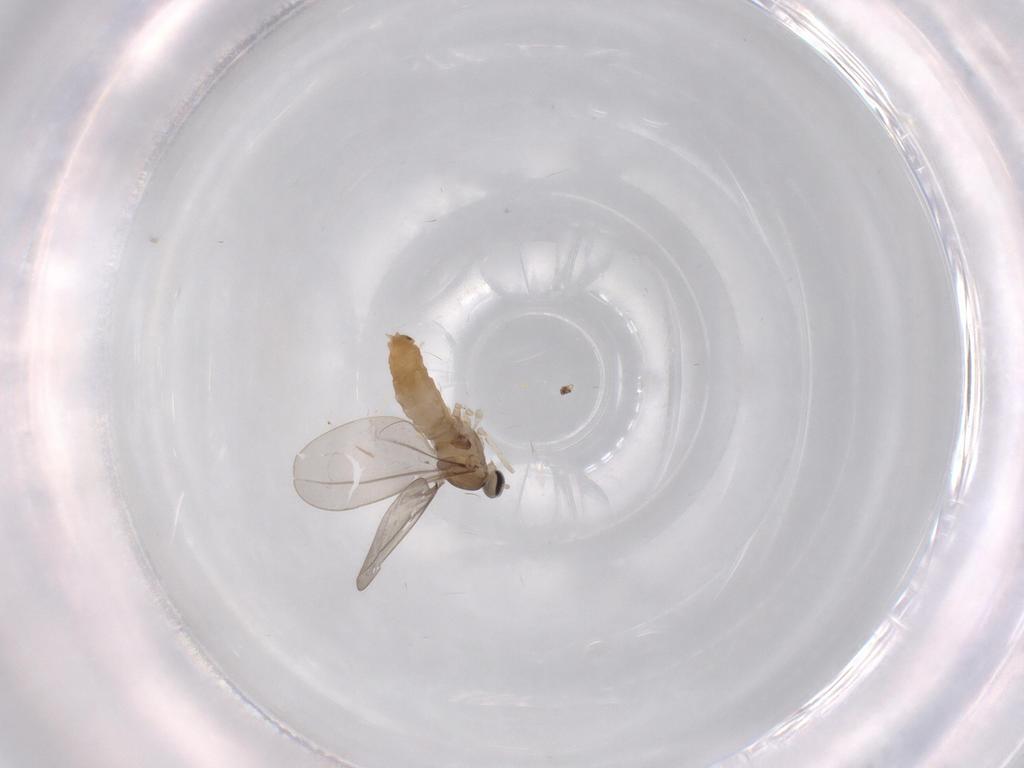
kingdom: Animalia
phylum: Arthropoda
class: Insecta
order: Diptera
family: Cecidomyiidae
